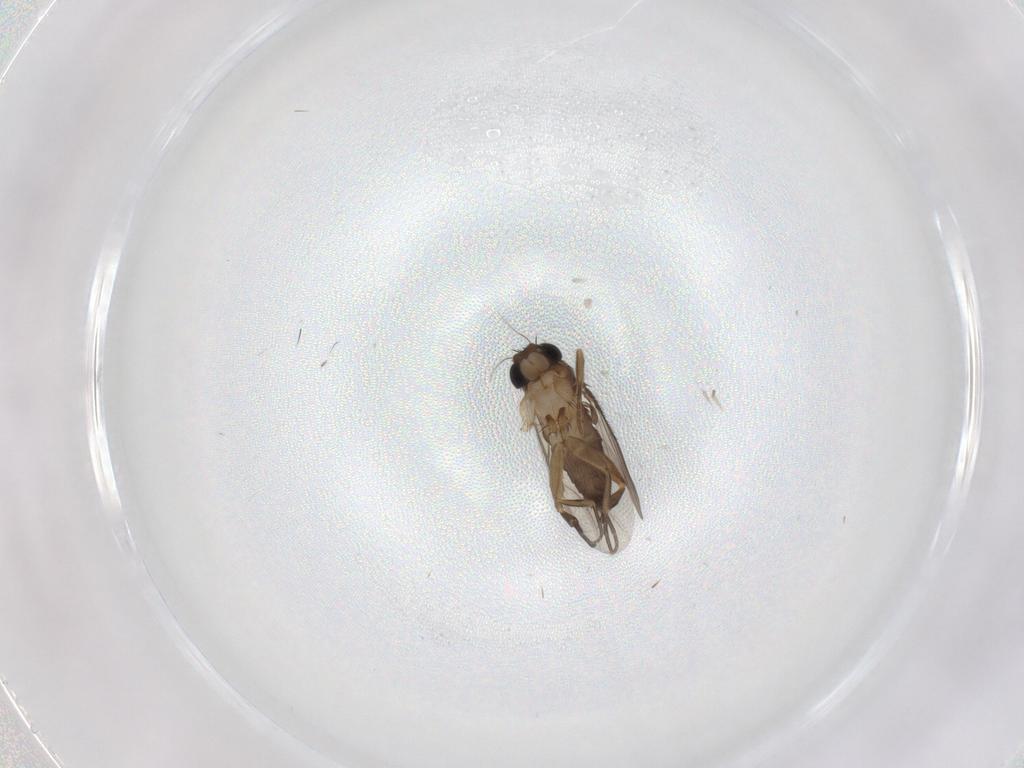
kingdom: Animalia
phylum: Arthropoda
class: Insecta
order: Diptera
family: Phoridae
